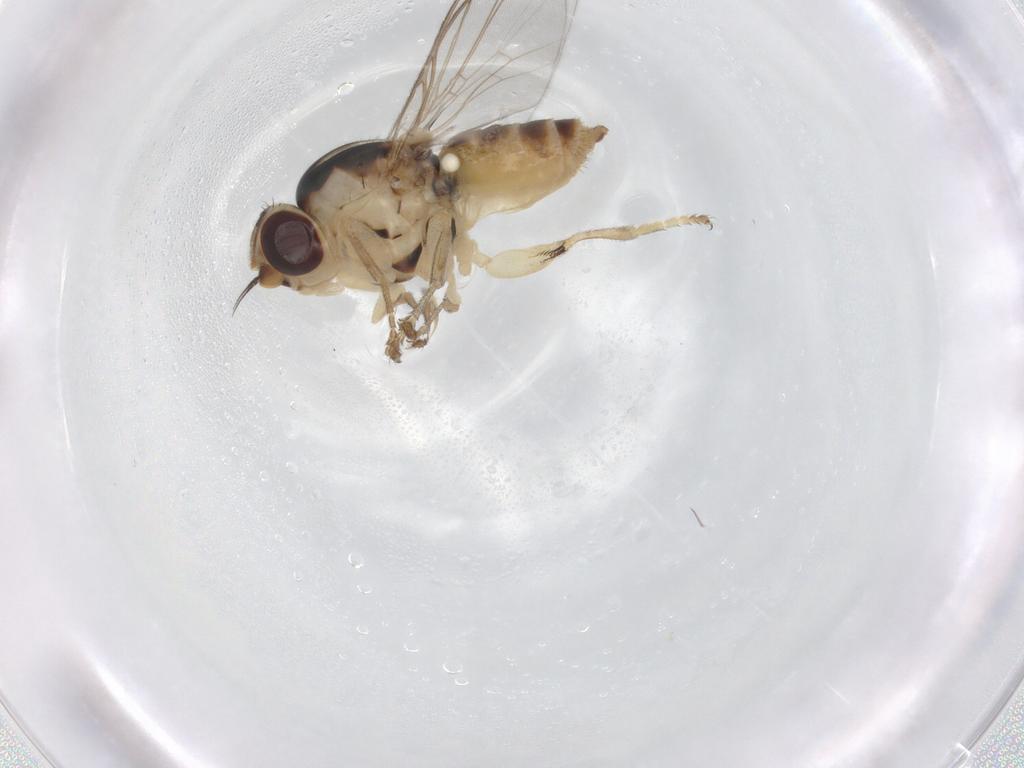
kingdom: Animalia
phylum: Arthropoda
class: Insecta
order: Diptera
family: Chloropidae
